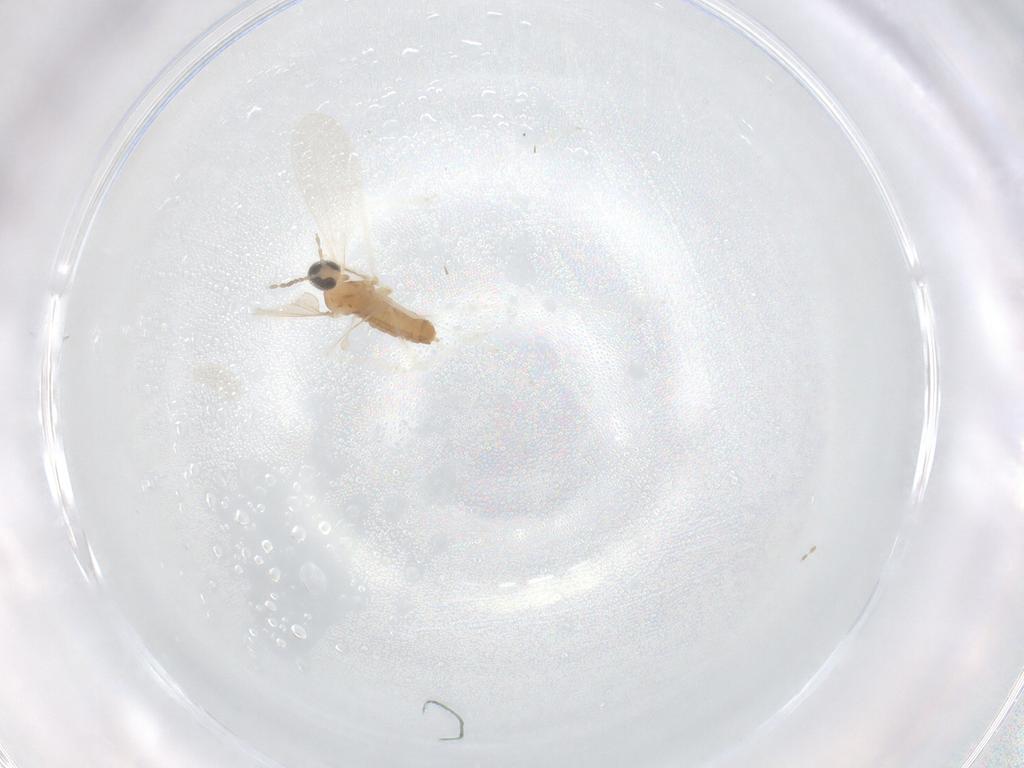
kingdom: Animalia
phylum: Arthropoda
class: Insecta
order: Diptera
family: Cecidomyiidae
